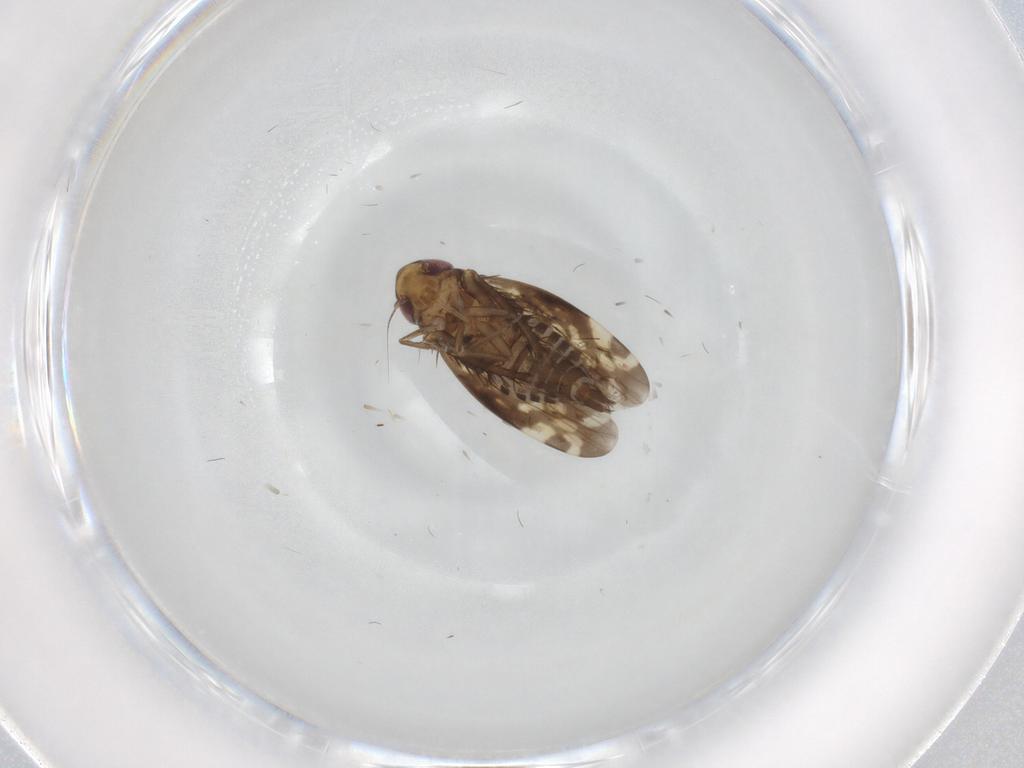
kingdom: Animalia
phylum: Arthropoda
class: Insecta
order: Hemiptera
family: Cicadellidae
